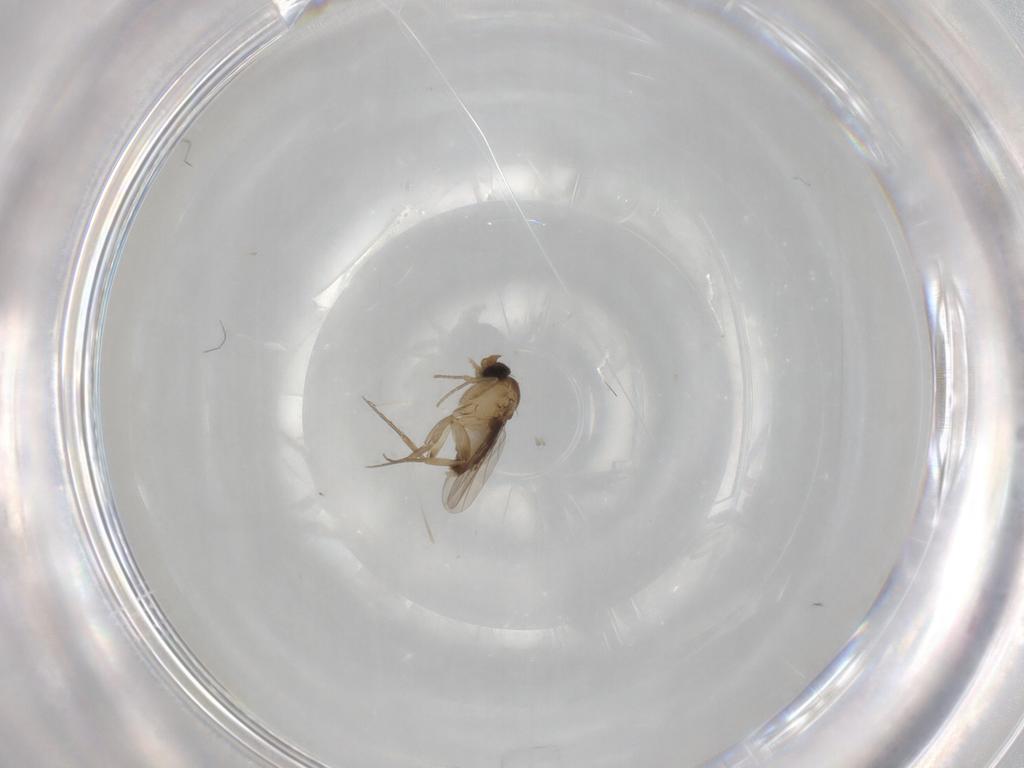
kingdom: Animalia
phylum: Arthropoda
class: Insecta
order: Diptera
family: Phoridae
